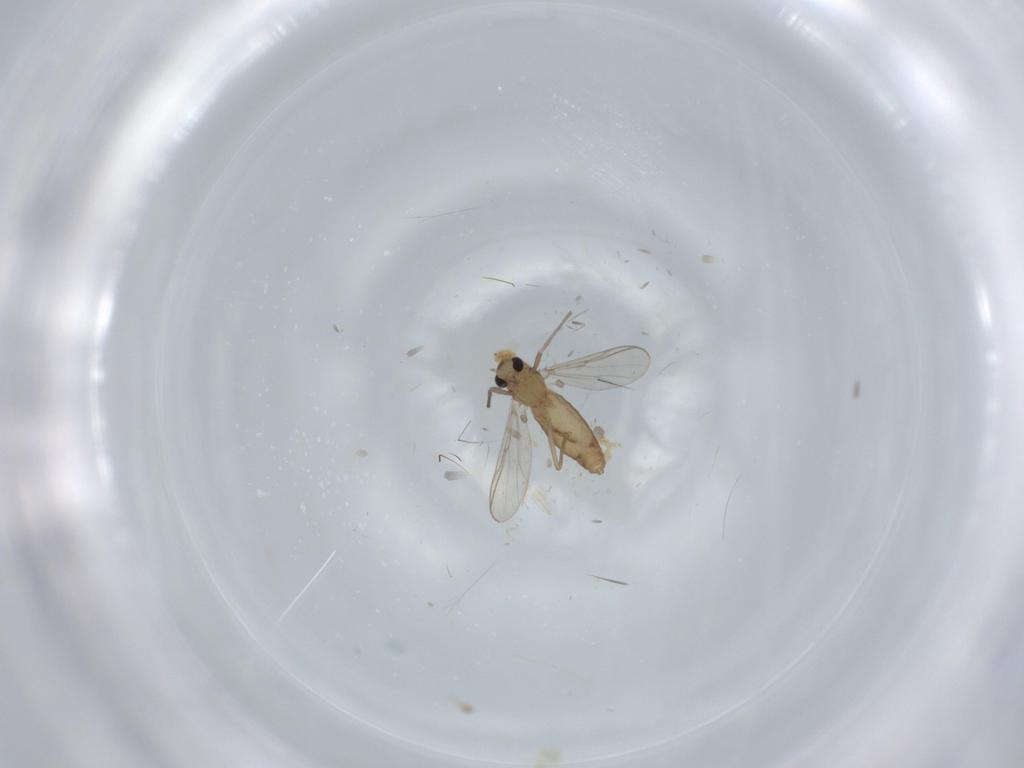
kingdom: Animalia
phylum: Arthropoda
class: Insecta
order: Diptera
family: Chironomidae
